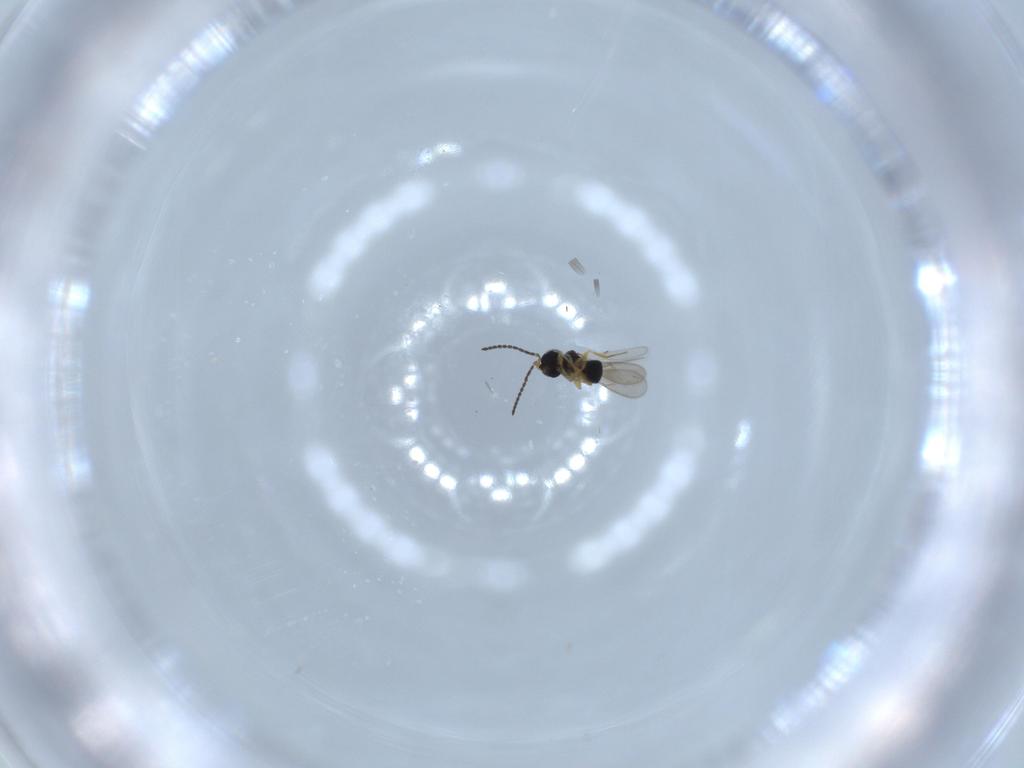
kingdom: Animalia
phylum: Arthropoda
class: Insecta
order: Hymenoptera
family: Scelionidae
